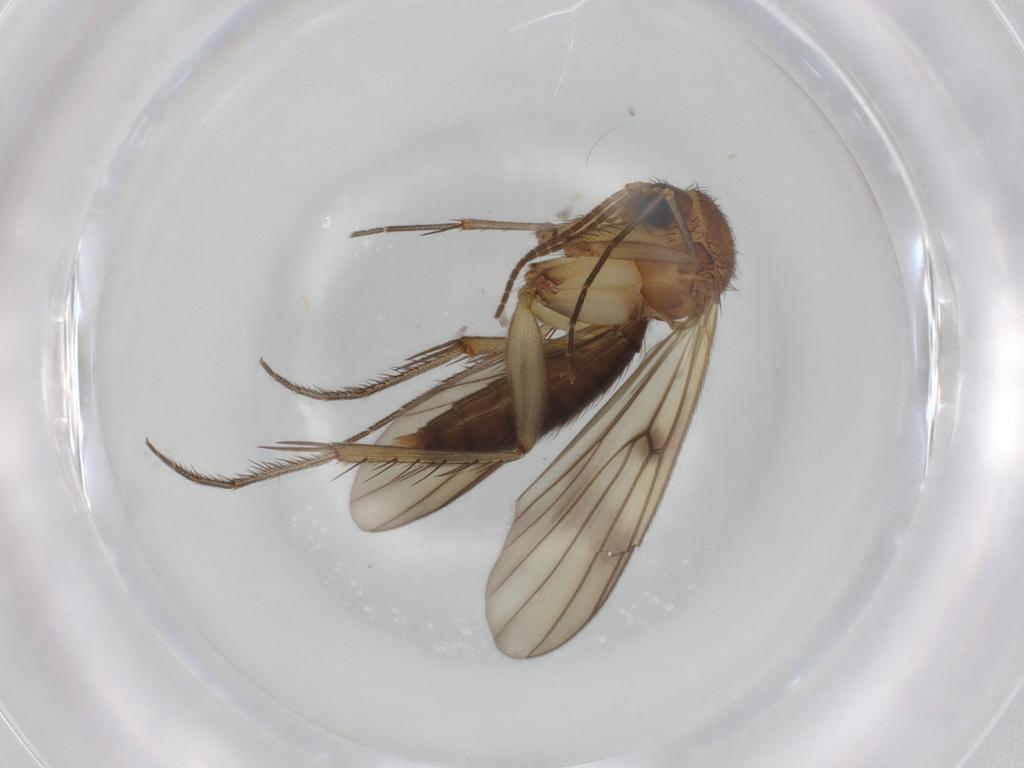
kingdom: Animalia
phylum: Arthropoda
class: Insecta
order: Diptera
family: Mycetophilidae
